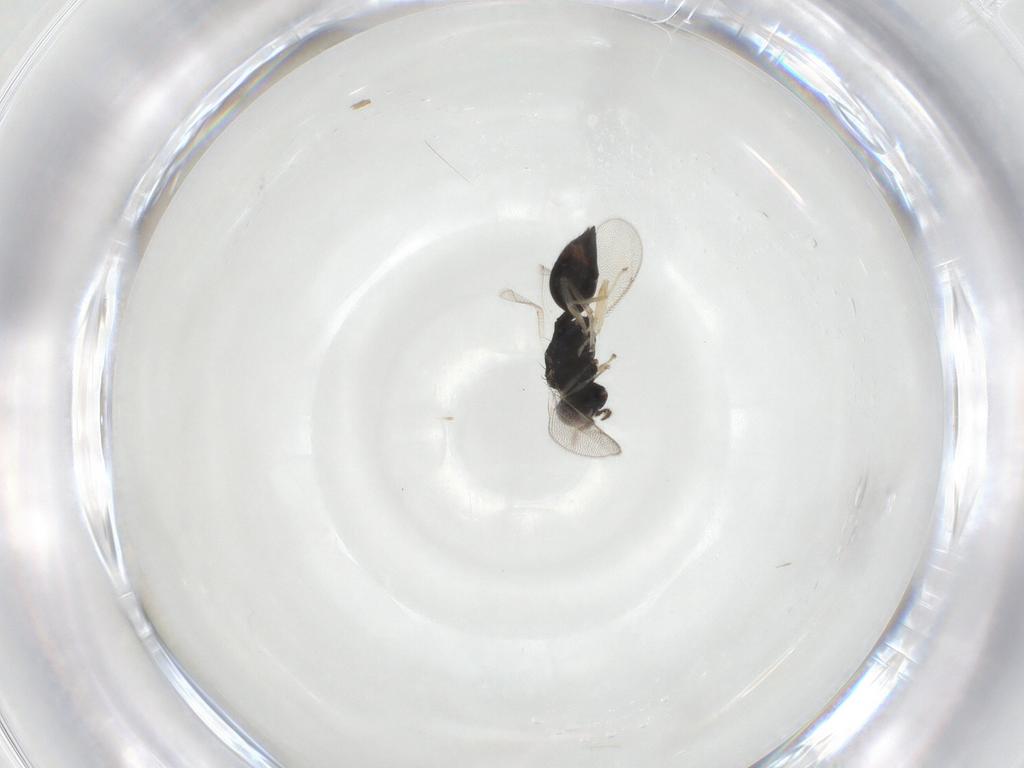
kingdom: Animalia
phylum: Arthropoda
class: Insecta
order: Hymenoptera
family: Eulophidae
